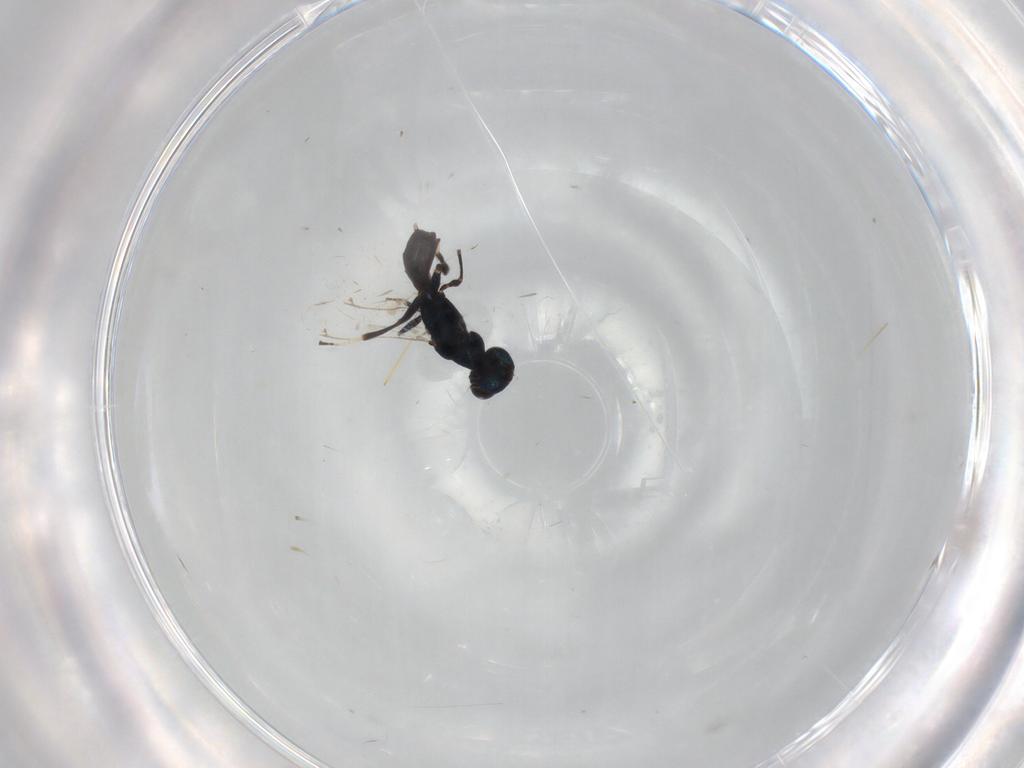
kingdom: Animalia
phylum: Arthropoda
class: Insecta
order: Hymenoptera
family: Cleonyminae
